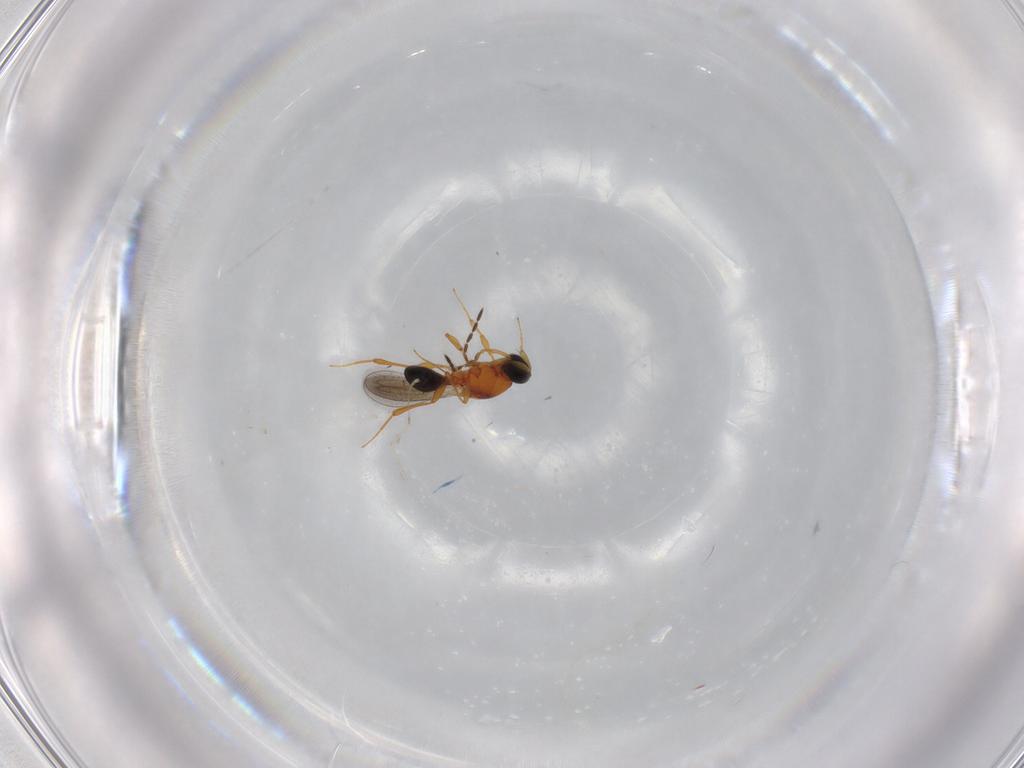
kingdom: Animalia
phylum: Arthropoda
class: Insecta
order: Hymenoptera
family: Platygastridae
